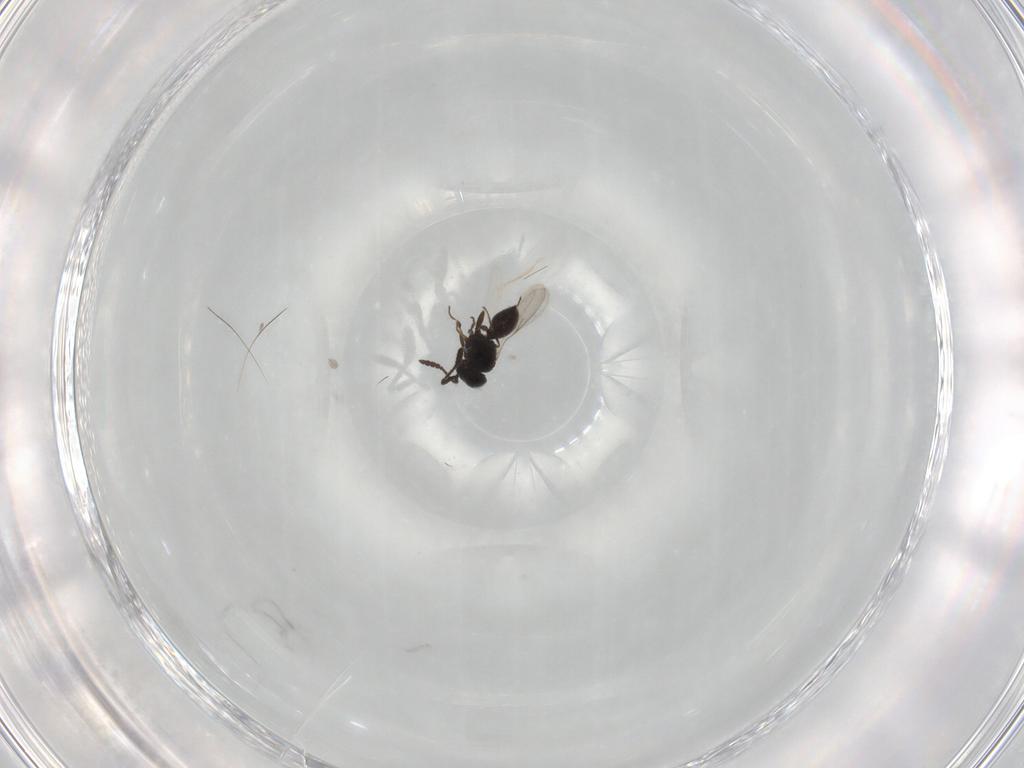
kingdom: Animalia
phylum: Arthropoda
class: Insecta
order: Hymenoptera
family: Scelionidae
